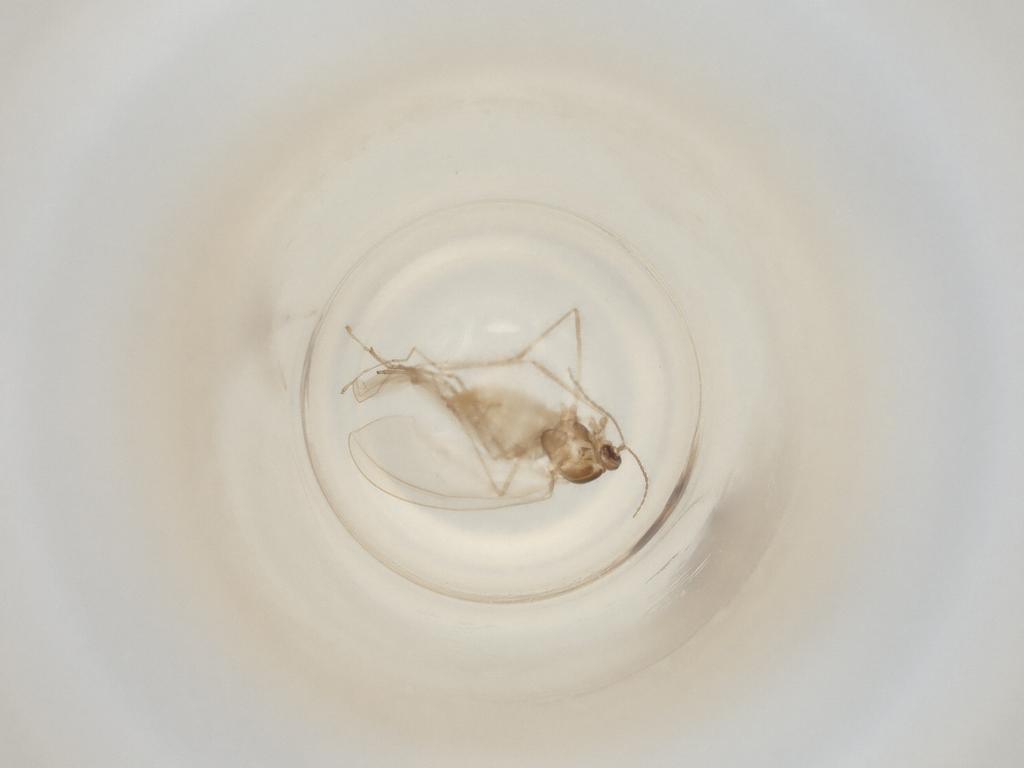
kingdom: Animalia
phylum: Arthropoda
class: Insecta
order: Diptera
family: Cecidomyiidae
